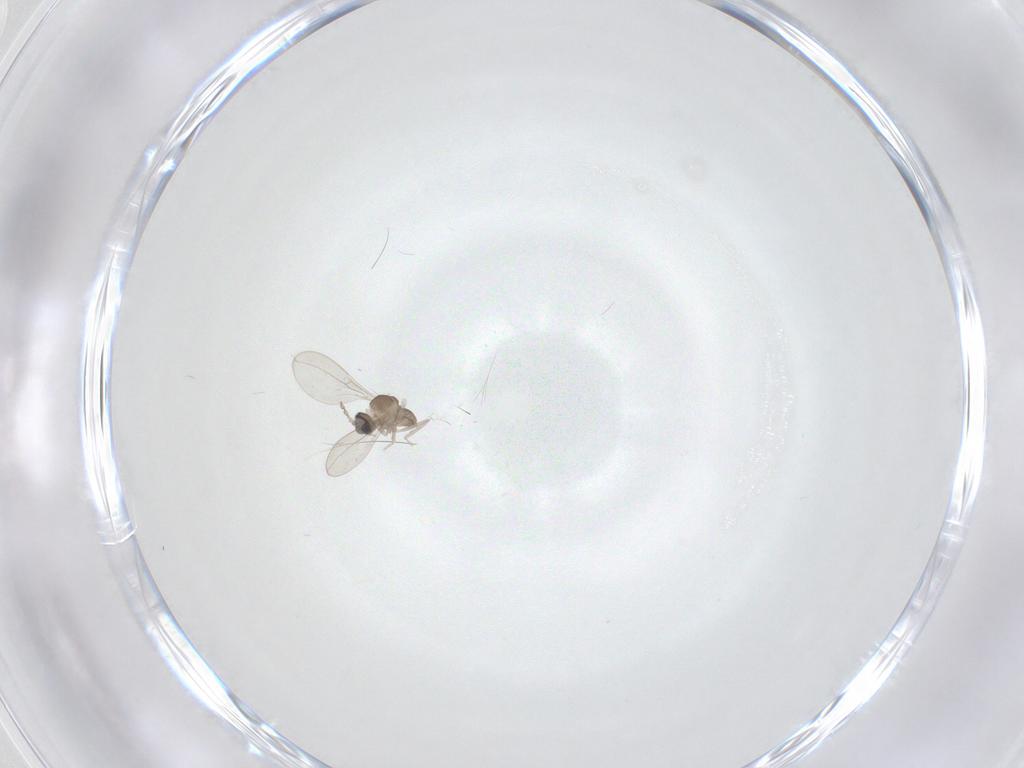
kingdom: Animalia
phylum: Arthropoda
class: Insecta
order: Diptera
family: Cecidomyiidae
